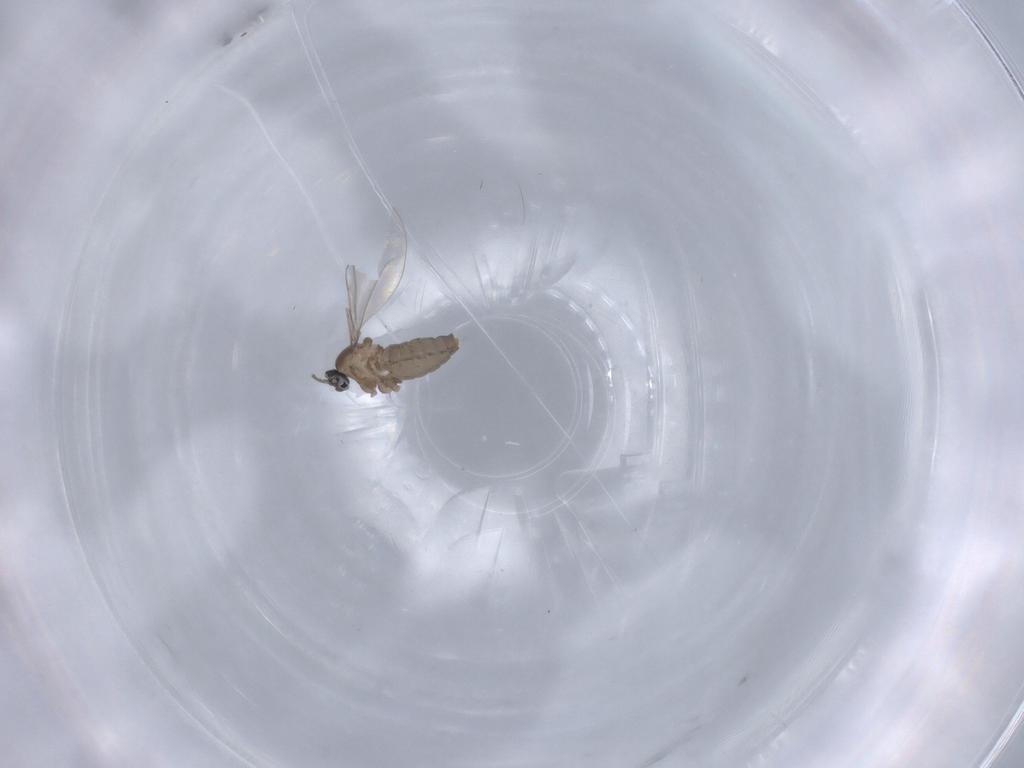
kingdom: Animalia
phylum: Arthropoda
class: Insecta
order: Diptera
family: Cecidomyiidae
